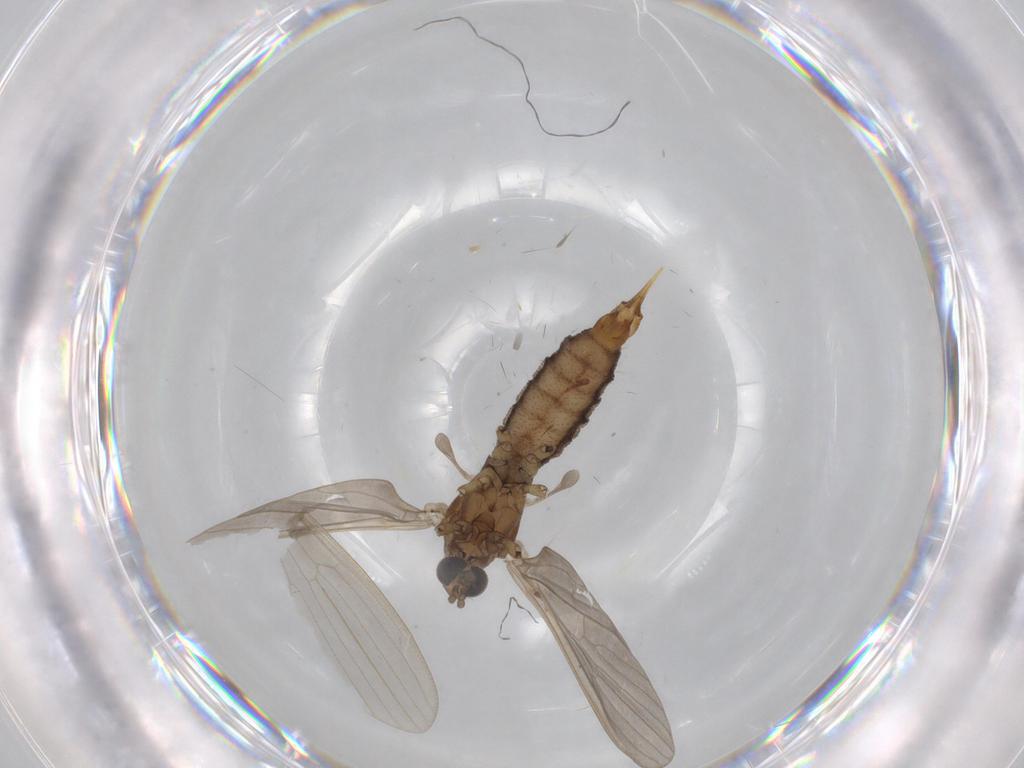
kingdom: Animalia
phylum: Arthropoda
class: Insecta
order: Diptera
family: Limoniidae
